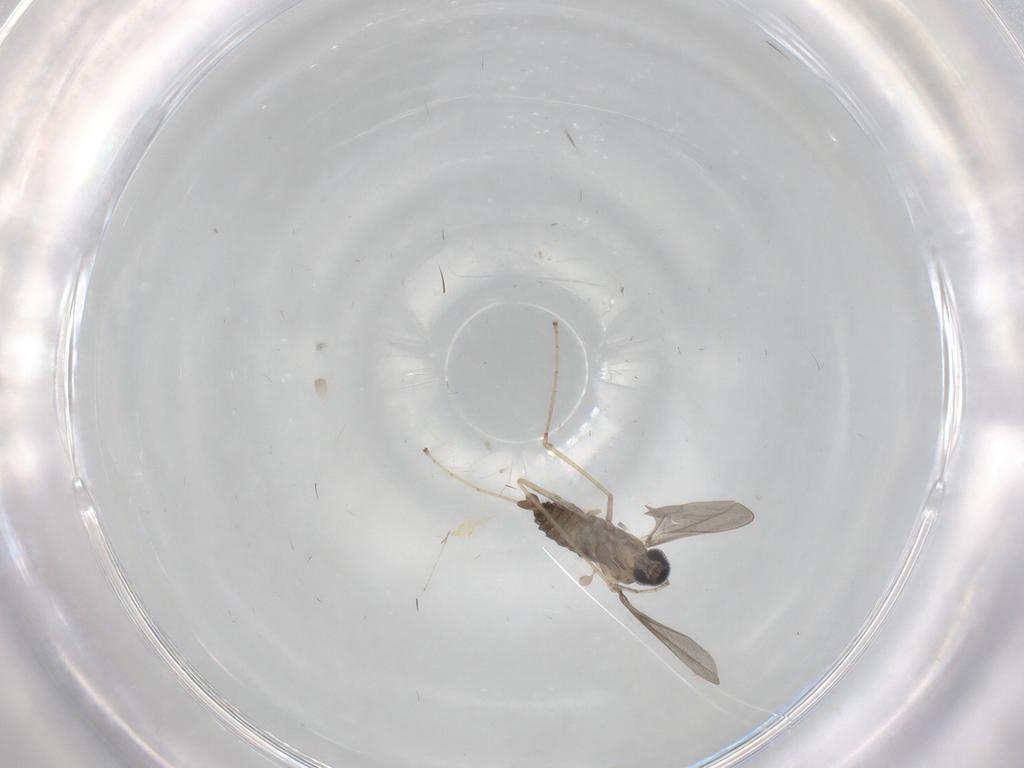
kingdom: Animalia
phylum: Arthropoda
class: Insecta
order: Diptera
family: Cecidomyiidae
